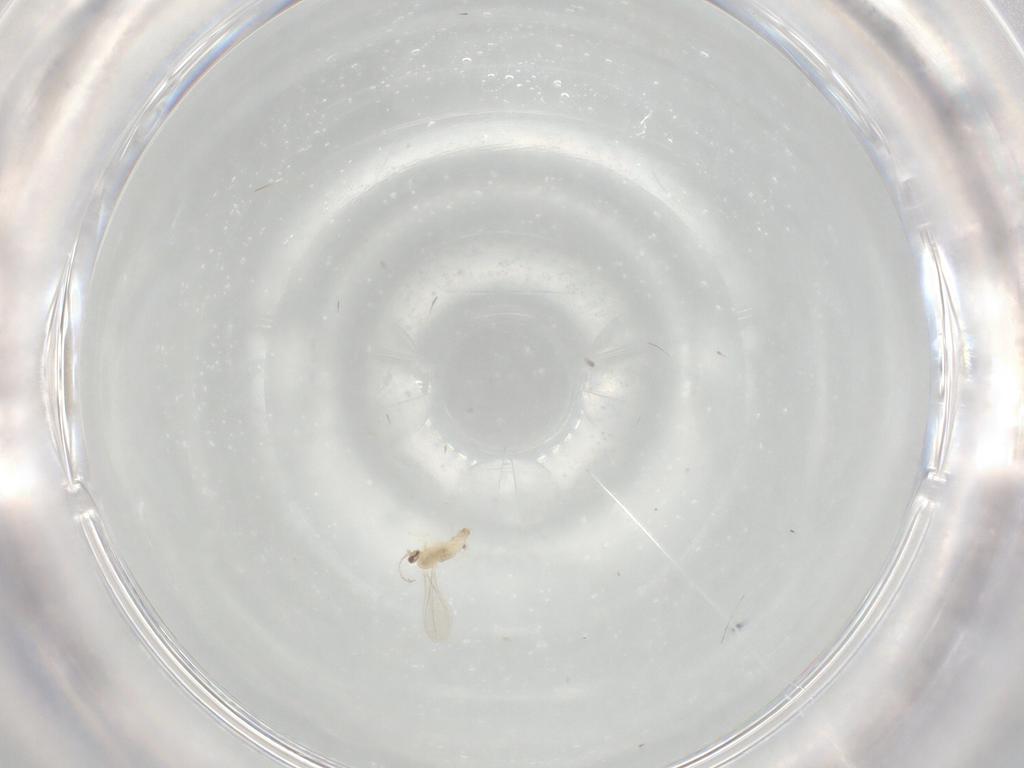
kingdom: Animalia
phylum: Arthropoda
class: Insecta
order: Diptera
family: Cecidomyiidae
